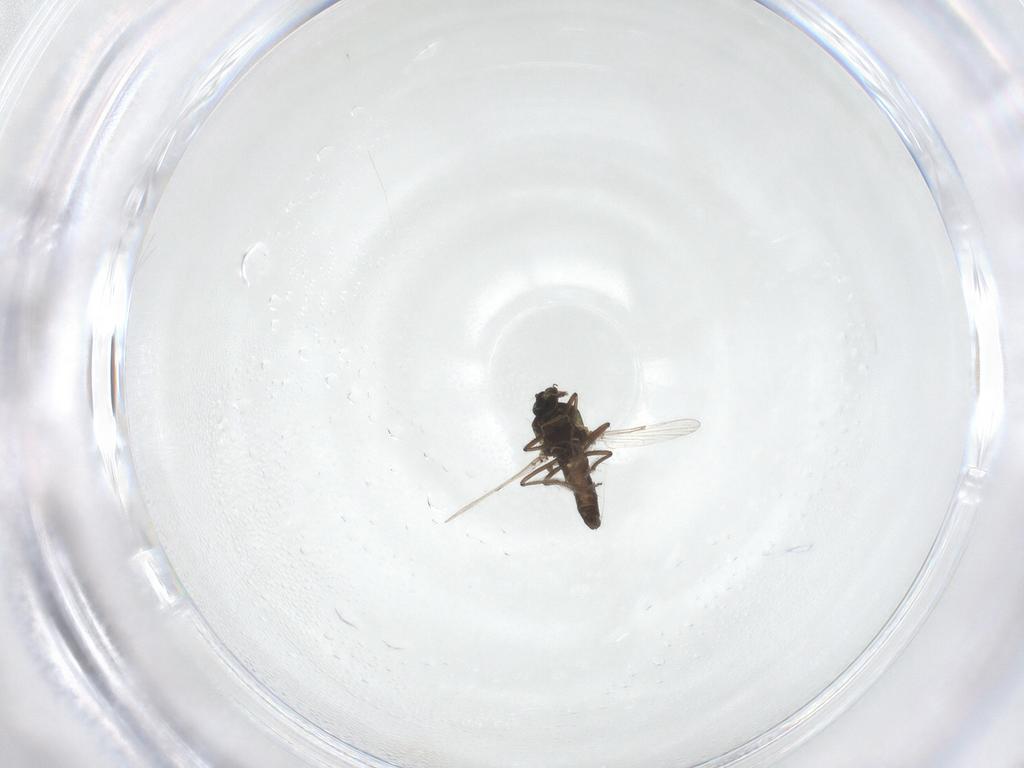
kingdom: Animalia
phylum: Arthropoda
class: Insecta
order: Diptera
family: Ceratopogonidae
